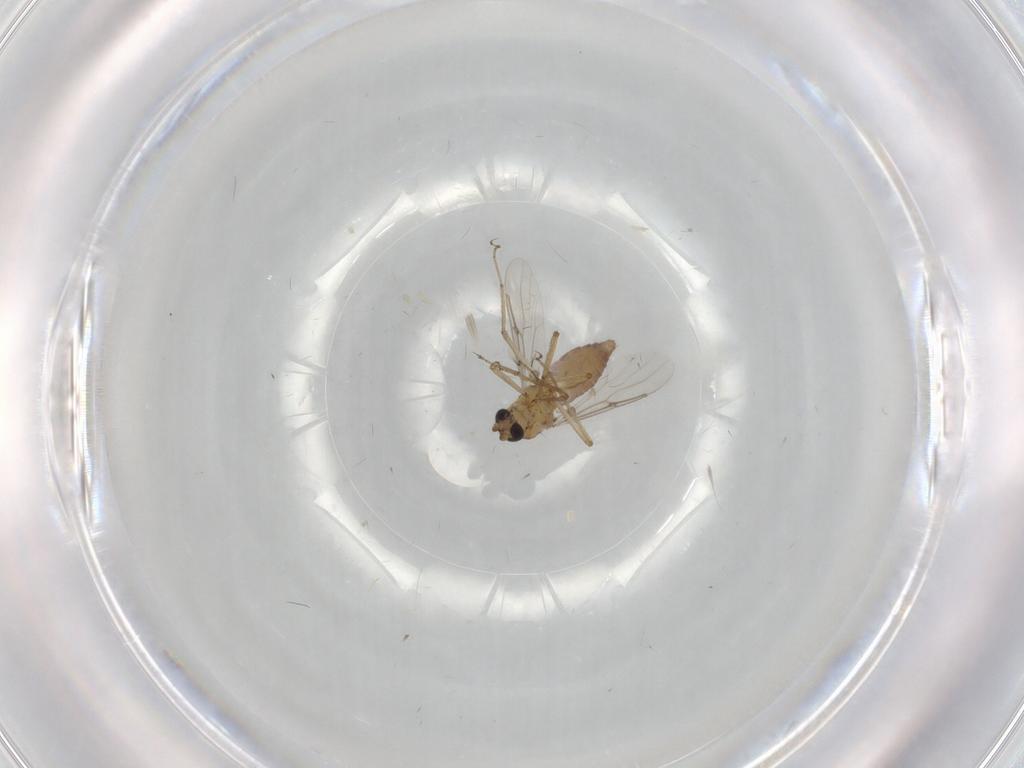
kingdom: Animalia
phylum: Arthropoda
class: Insecta
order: Diptera
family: Ceratopogonidae
